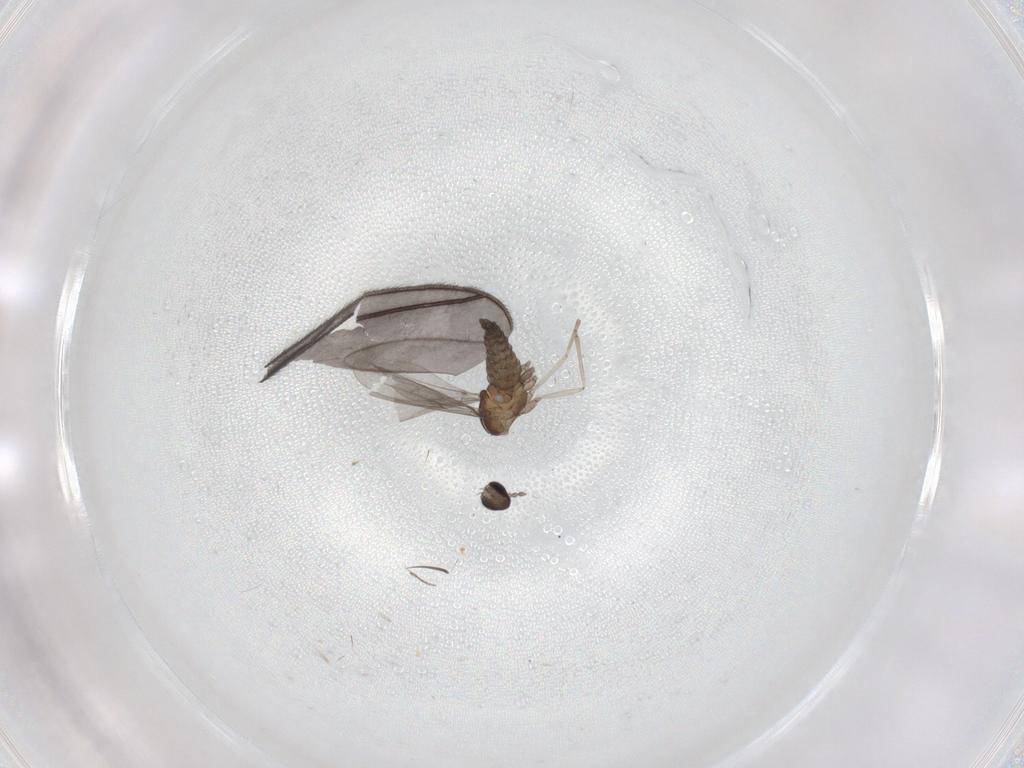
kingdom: Animalia
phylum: Arthropoda
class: Insecta
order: Diptera
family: Cecidomyiidae
